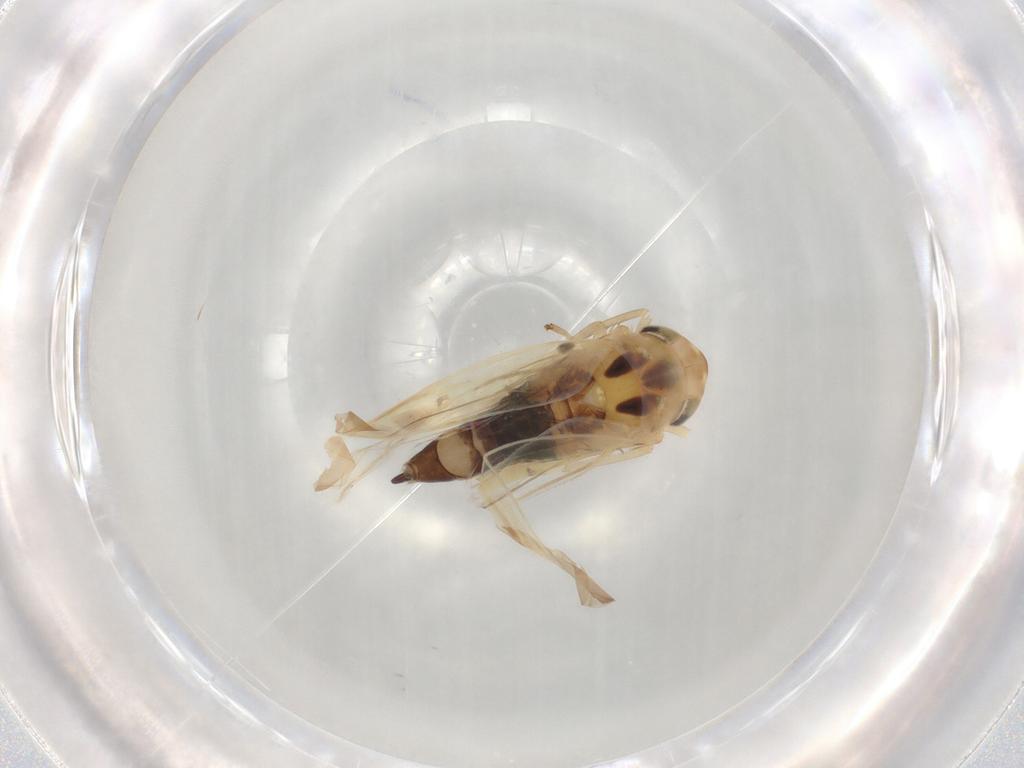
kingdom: Animalia
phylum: Arthropoda
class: Insecta
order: Hemiptera
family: Cicadellidae
